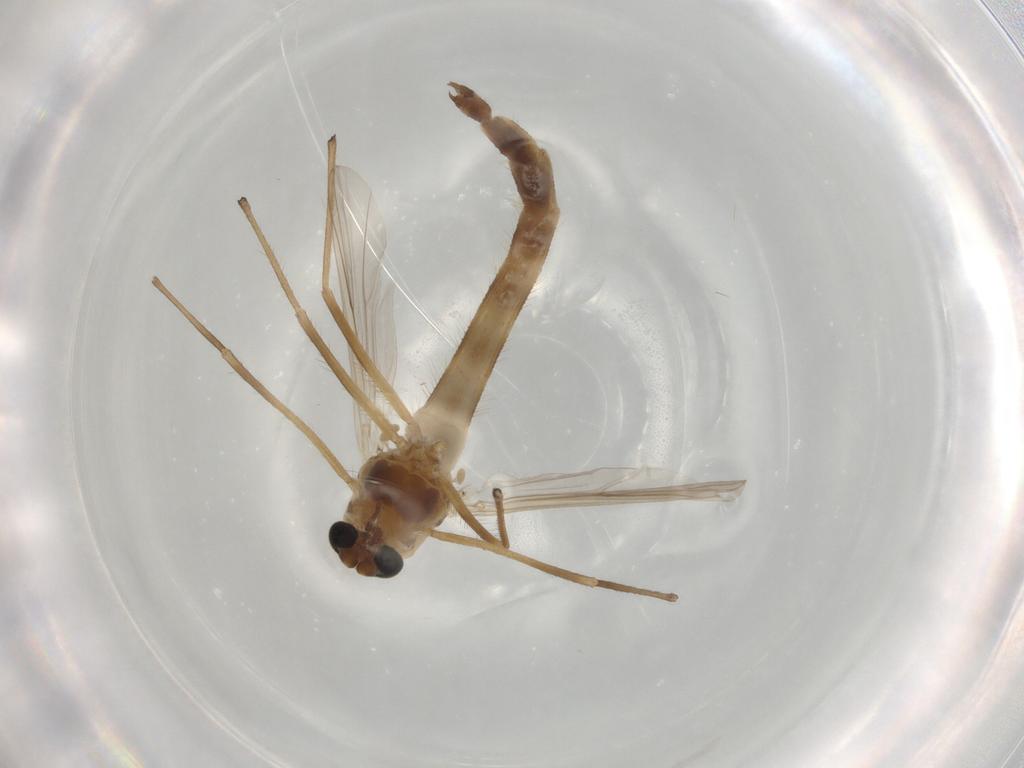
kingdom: Animalia
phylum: Arthropoda
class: Insecta
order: Diptera
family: Chironomidae
